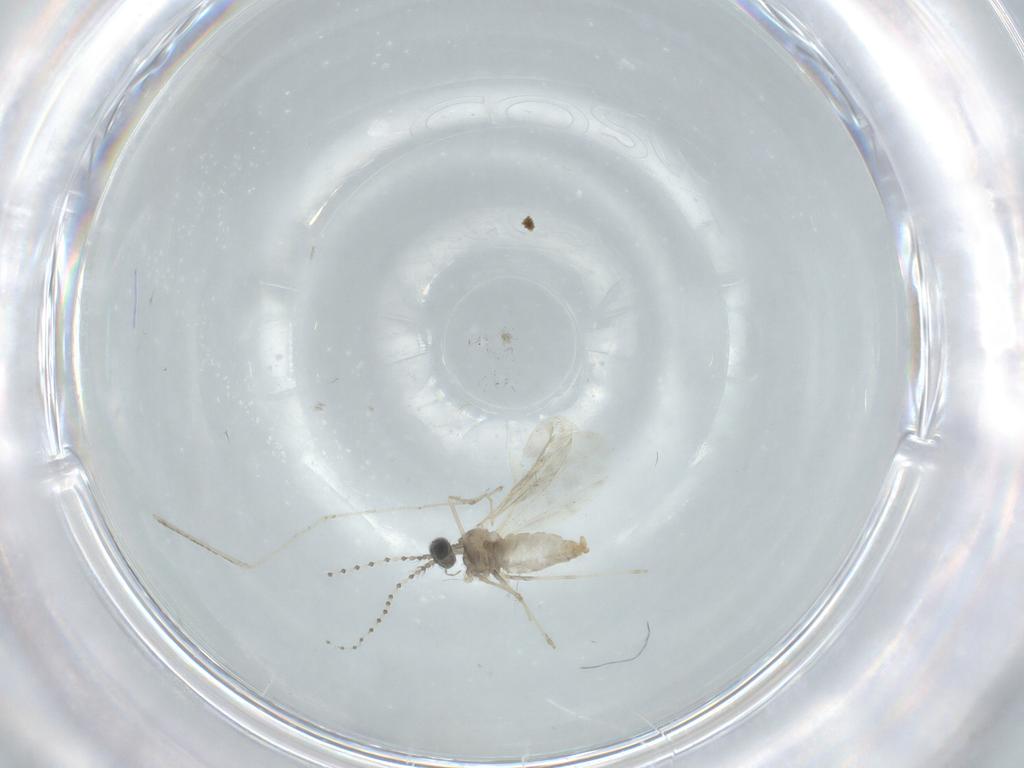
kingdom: Animalia
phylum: Arthropoda
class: Insecta
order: Diptera
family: Cecidomyiidae
